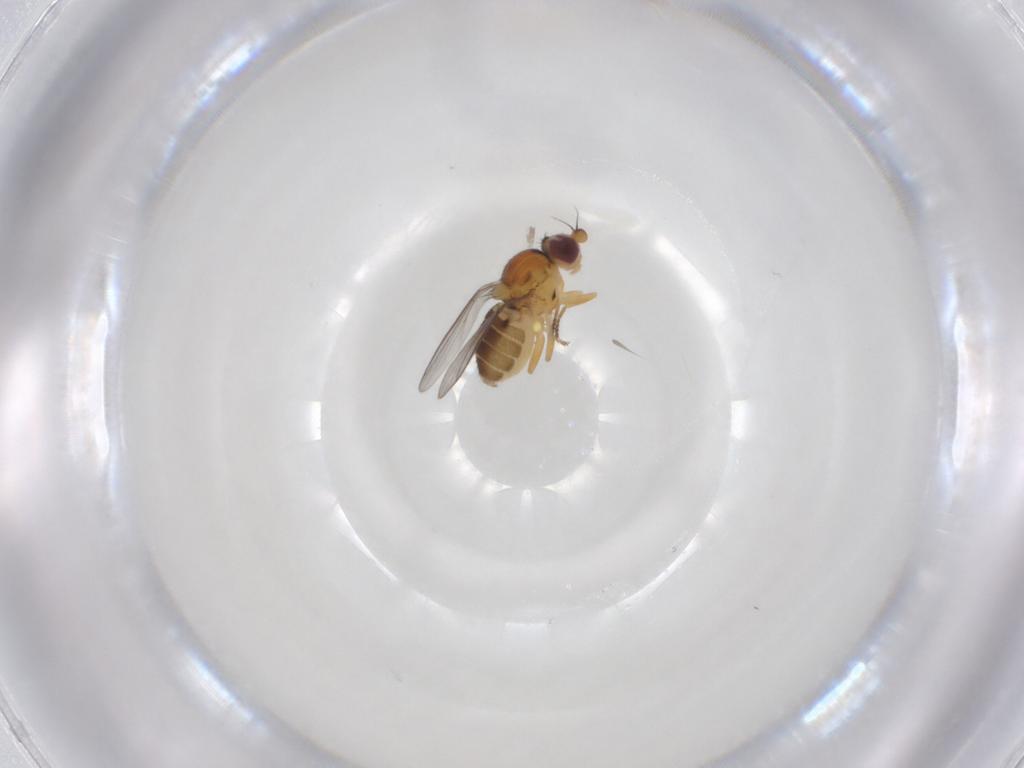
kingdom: Animalia
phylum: Arthropoda
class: Insecta
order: Diptera
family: Chloropidae
